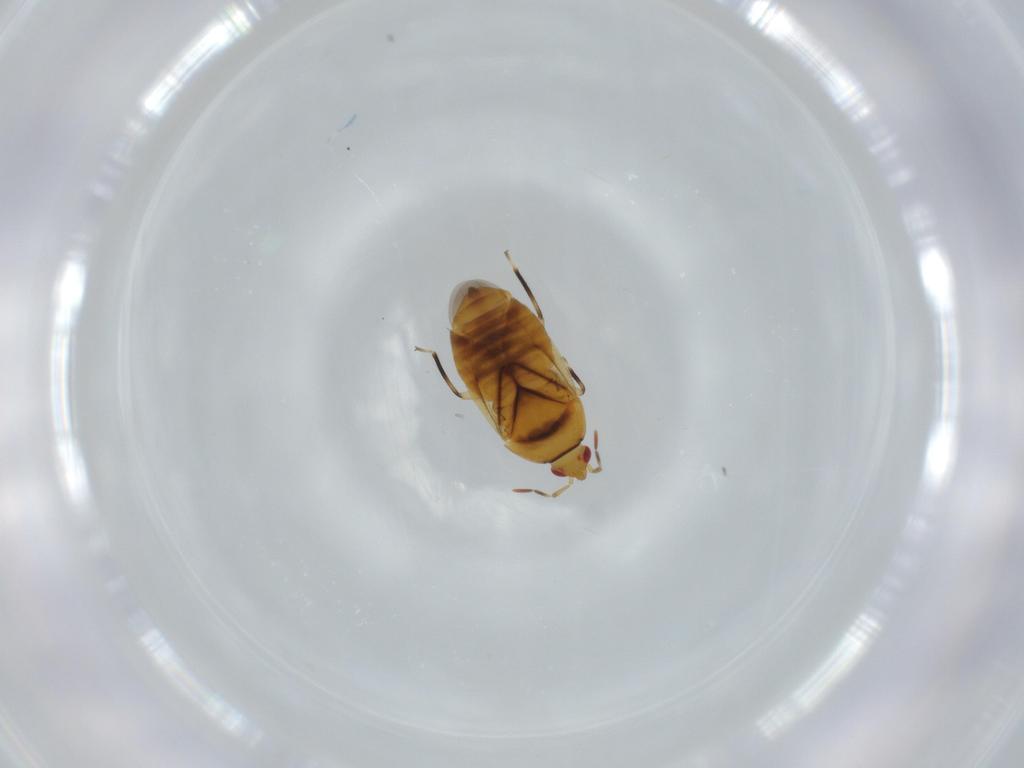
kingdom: Animalia
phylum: Arthropoda
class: Insecta
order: Hemiptera
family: Anthocoridae
